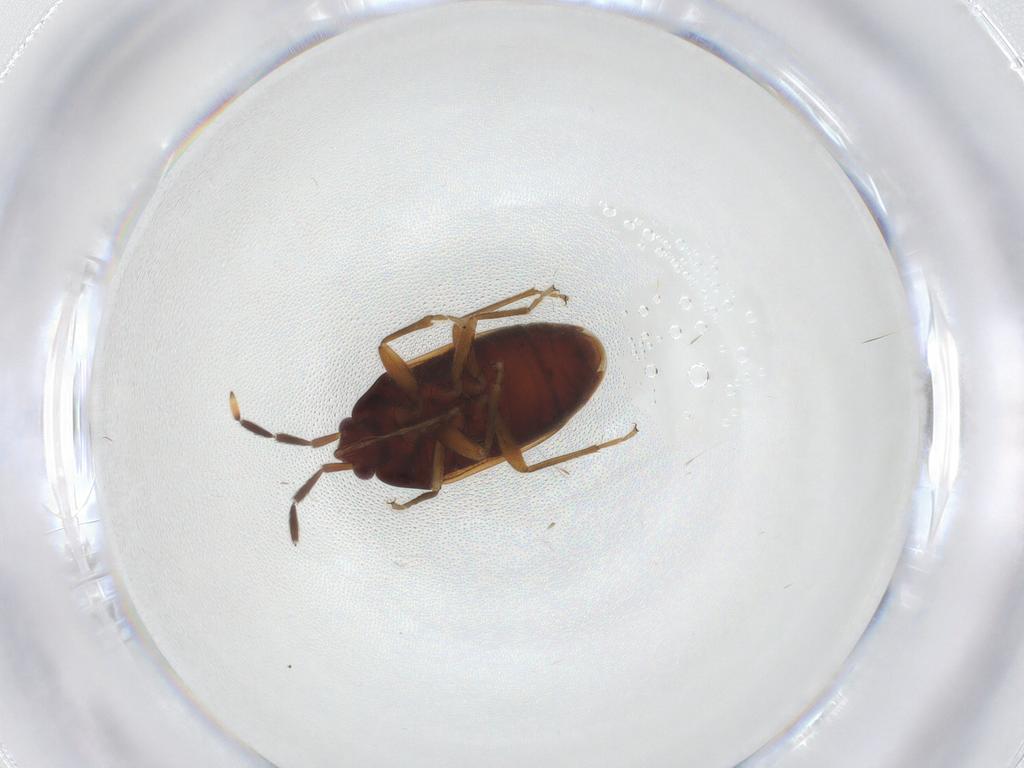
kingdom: Animalia
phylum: Arthropoda
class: Insecta
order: Hemiptera
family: Rhyparochromidae
